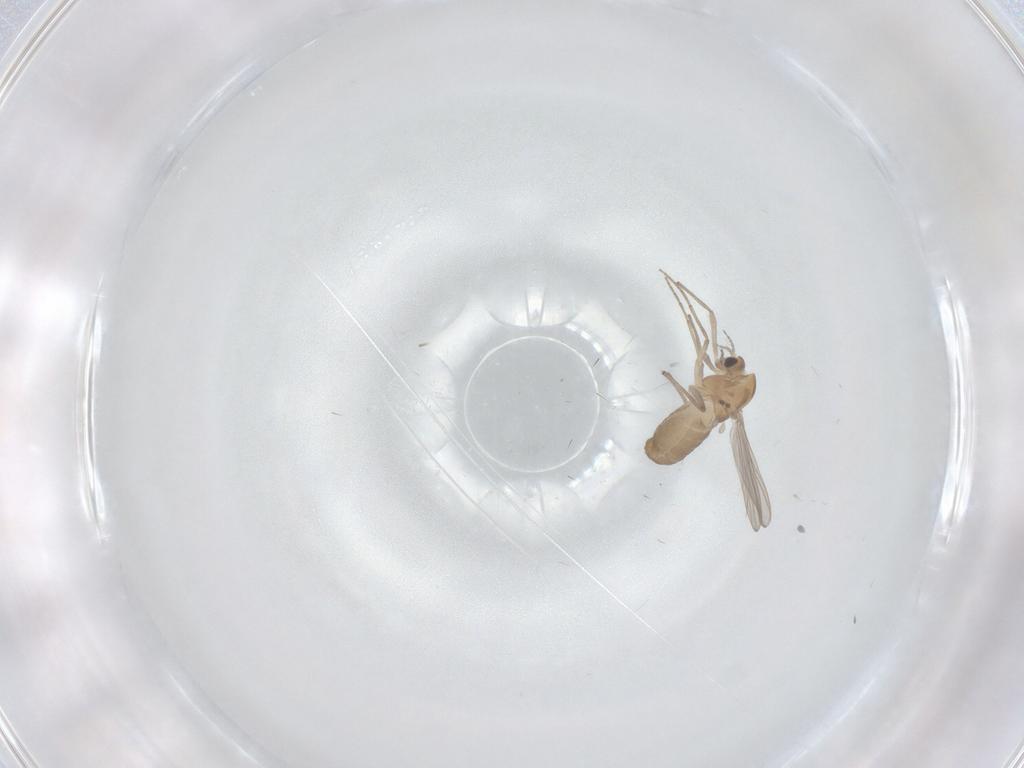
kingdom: Animalia
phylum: Arthropoda
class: Insecta
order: Diptera
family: Chironomidae
